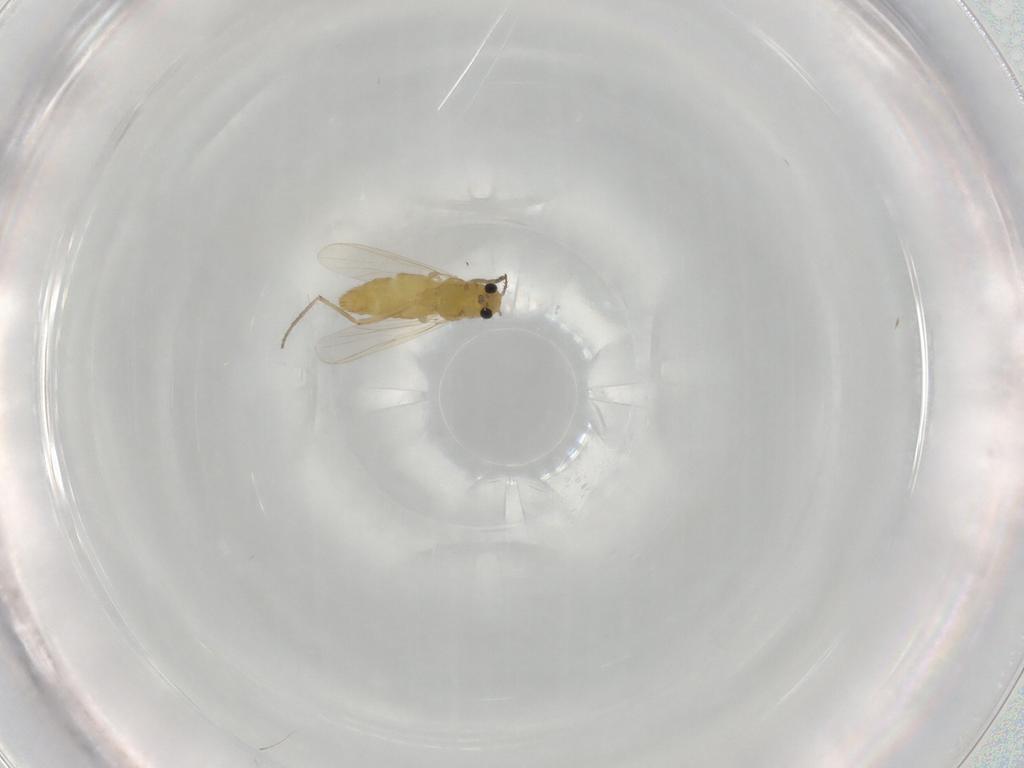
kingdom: Animalia
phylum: Arthropoda
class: Insecta
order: Diptera
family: Chironomidae
